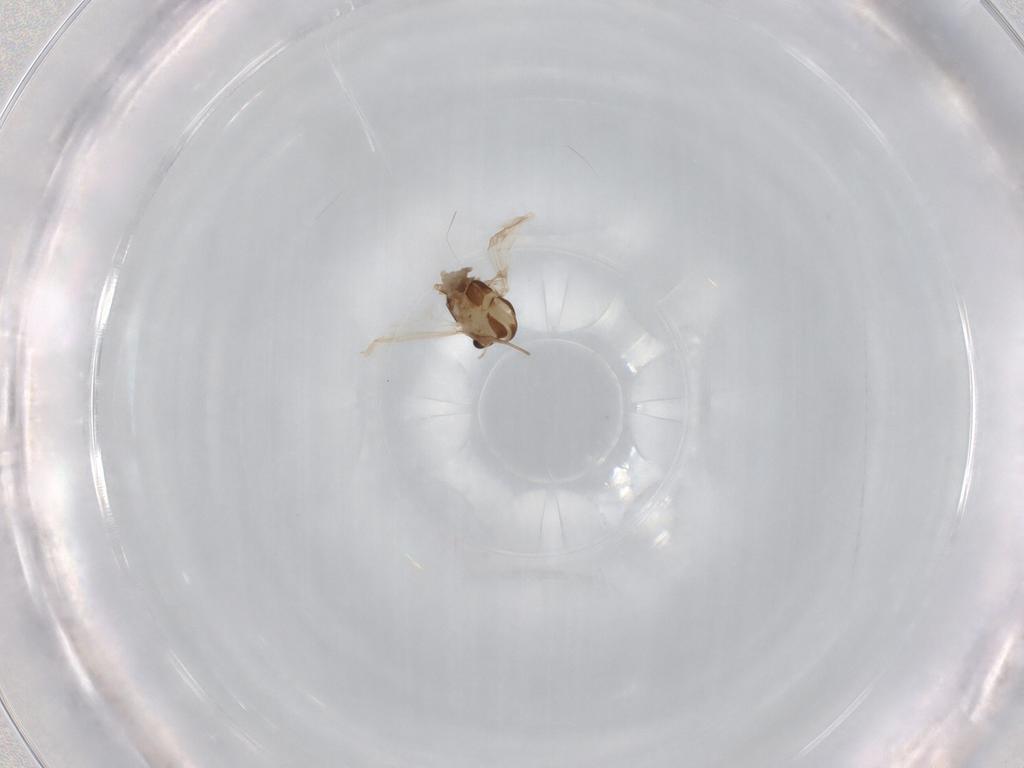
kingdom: Animalia
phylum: Arthropoda
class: Insecta
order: Diptera
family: Chironomidae
